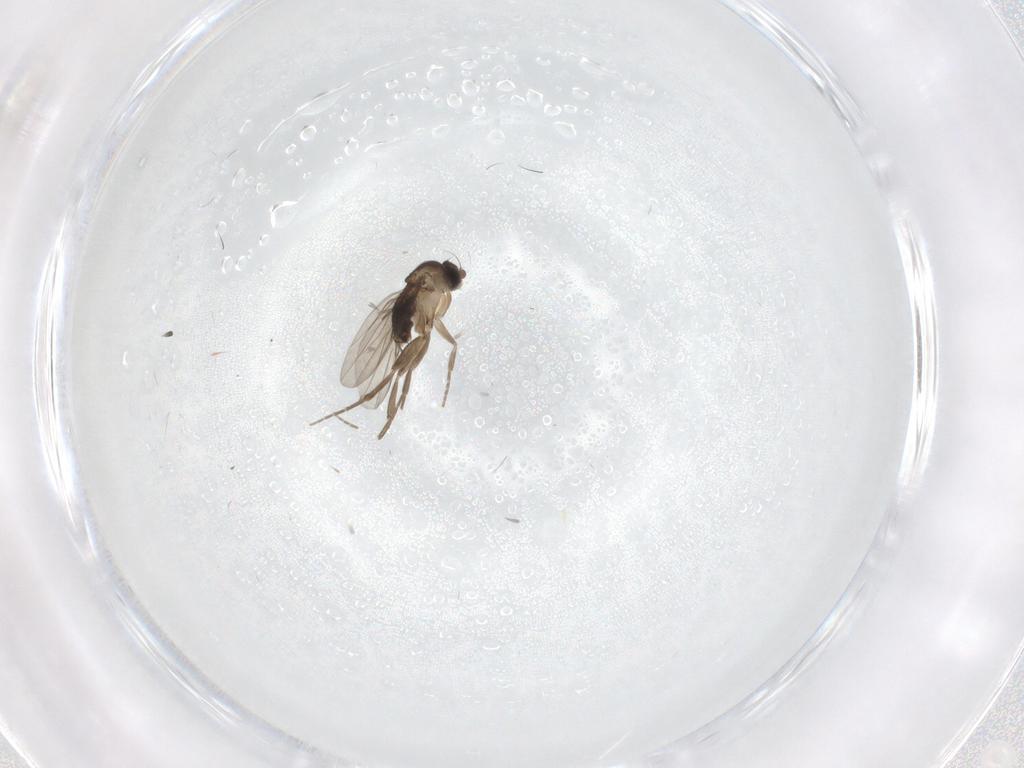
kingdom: Animalia
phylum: Arthropoda
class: Insecta
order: Diptera
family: Phoridae
